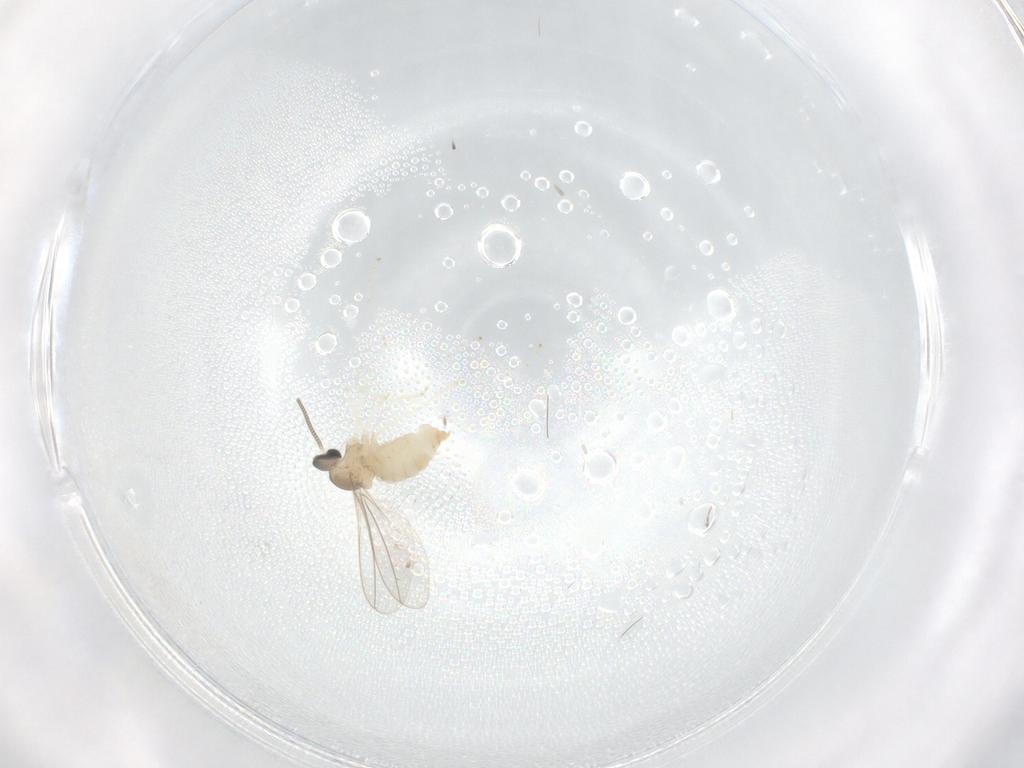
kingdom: Animalia
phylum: Arthropoda
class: Insecta
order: Diptera
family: Cecidomyiidae
